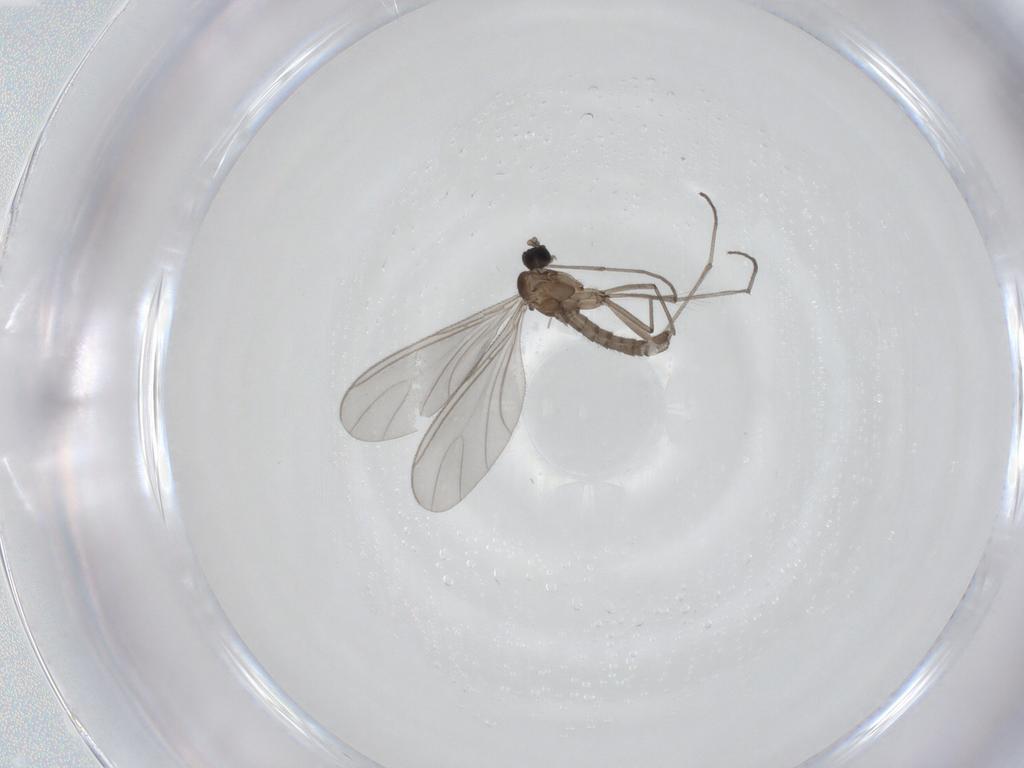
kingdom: Animalia
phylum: Arthropoda
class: Insecta
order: Diptera
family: Sciaridae
